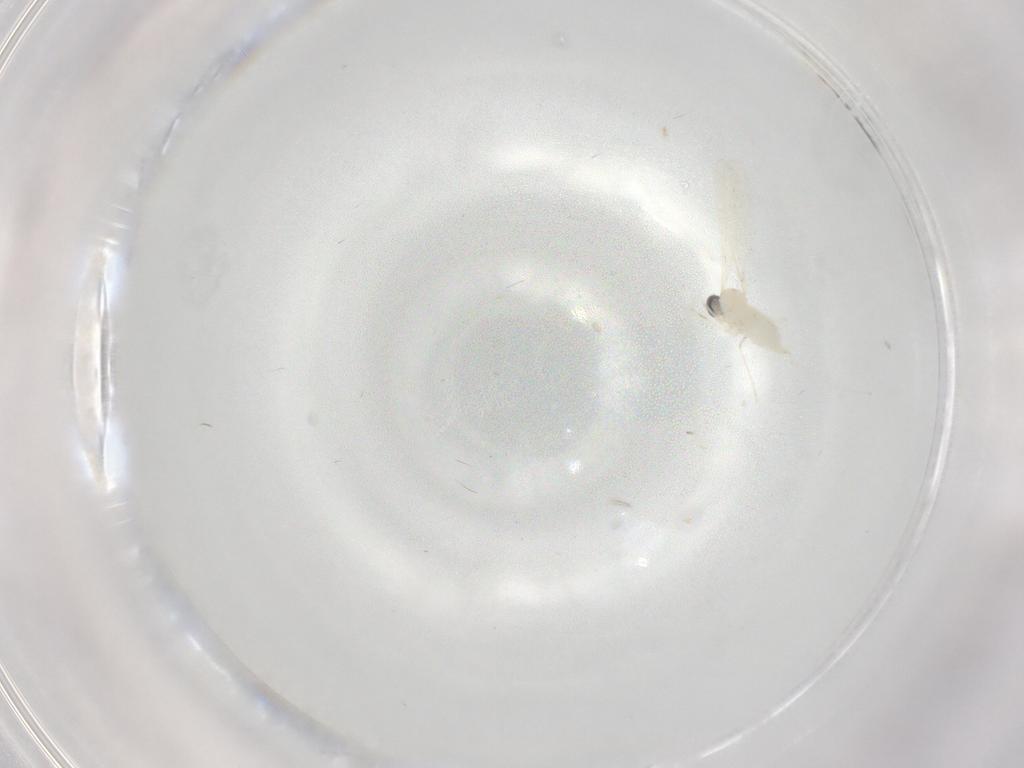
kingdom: Animalia
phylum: Arthropoda
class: Insecta
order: Diptera
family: Cecidomyiidae
